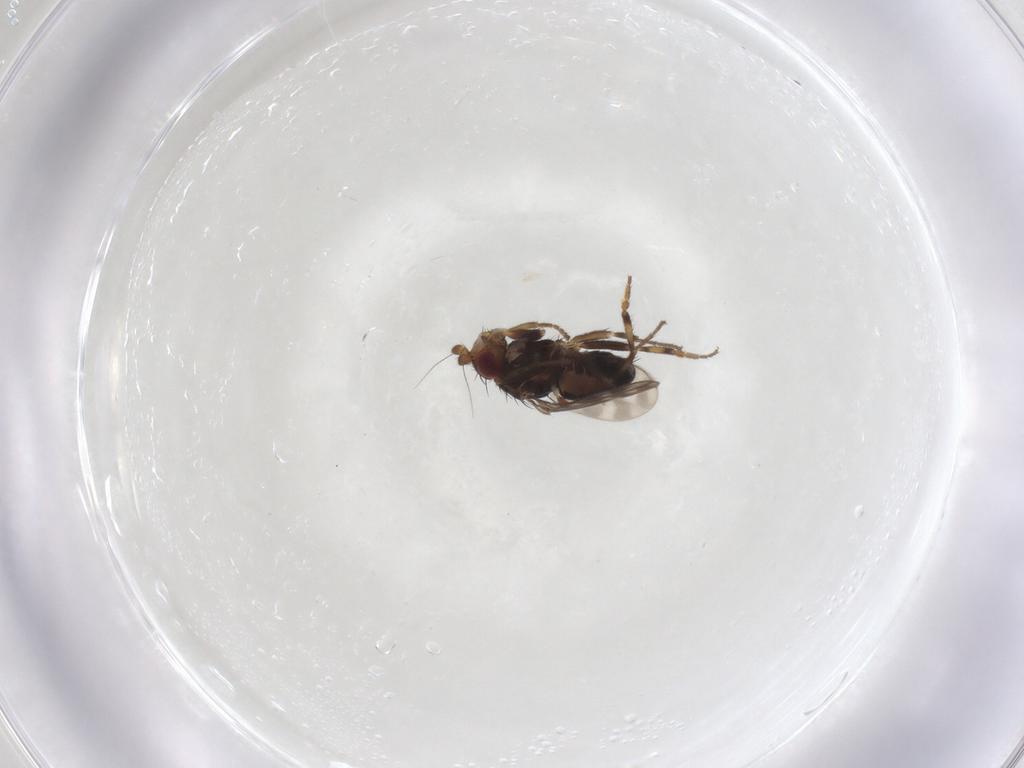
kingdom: Animalia
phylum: Arthropoda
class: Insecta
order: Diptera
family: Sphaeroceridae
